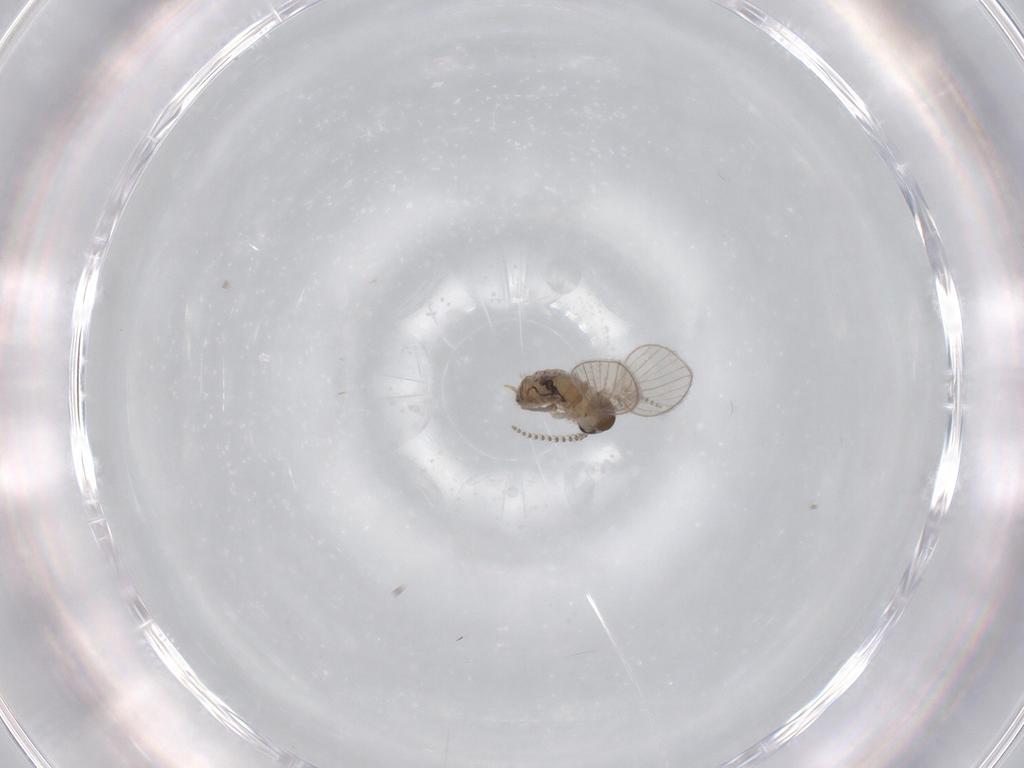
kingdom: Animalia
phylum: Arthropoda
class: Insecta
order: Diptera
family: Psychodidae
